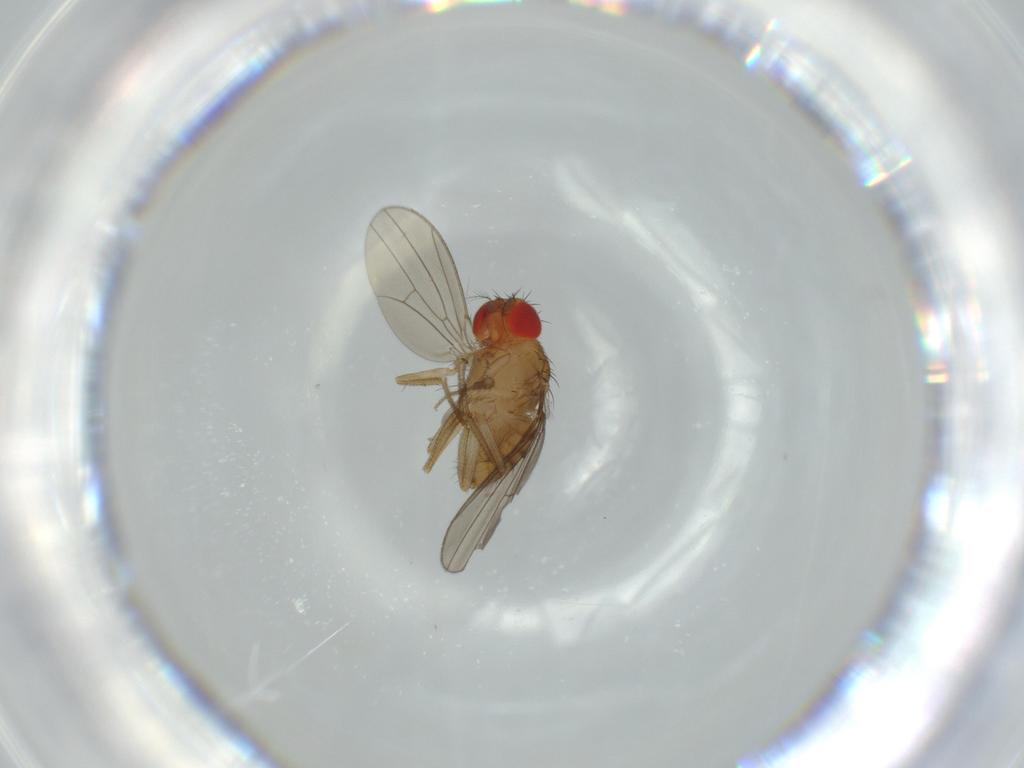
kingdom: Animalia
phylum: Arthropoda
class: Insecta
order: Diptera
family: Drosophilidae
